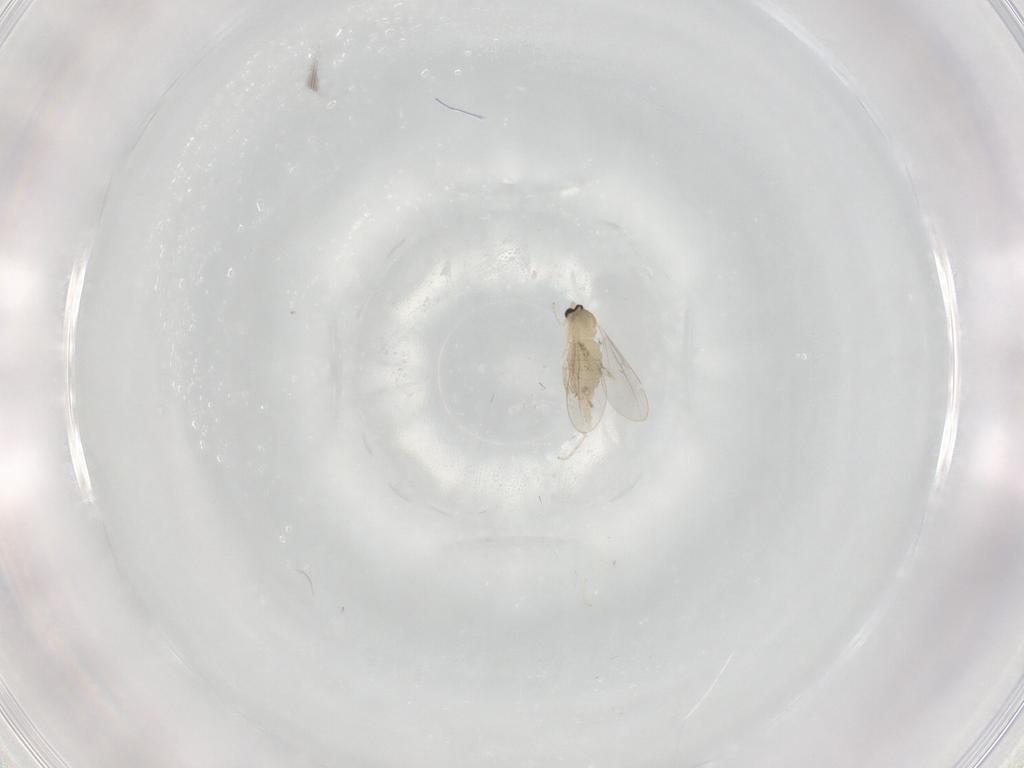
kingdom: Animalia
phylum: Arthropoda
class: Insecta
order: Diptera
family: Cecidomyiidae
